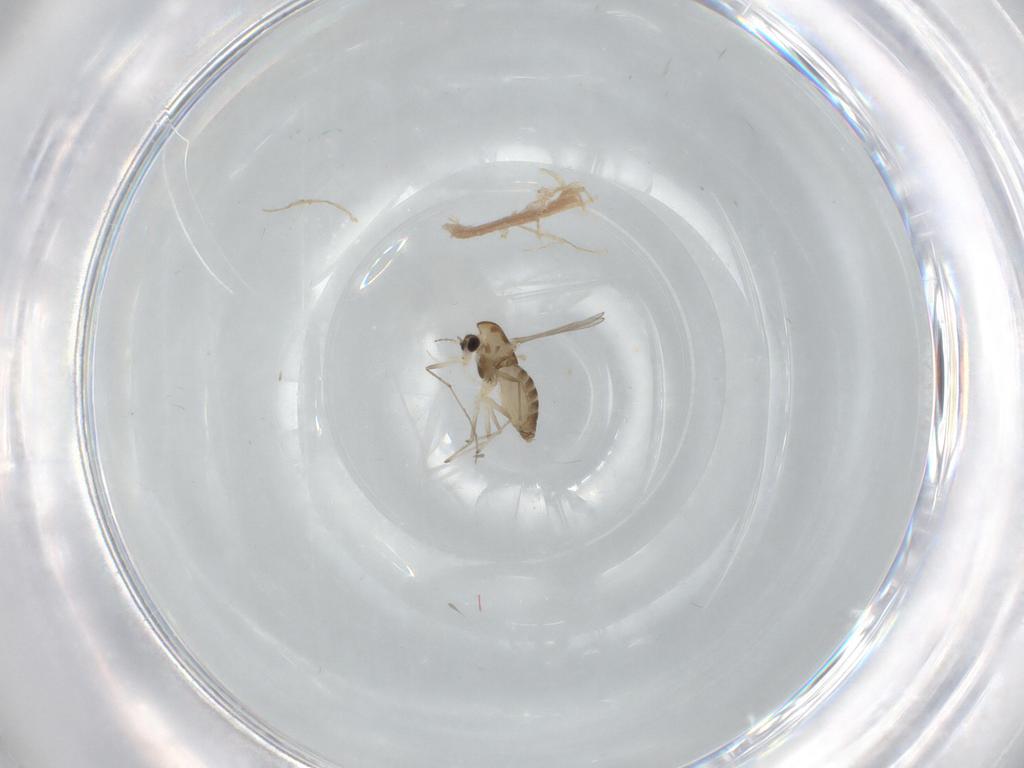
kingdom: Animalia
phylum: Arthropoda
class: Insecta
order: Diptera
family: Chironomidae
